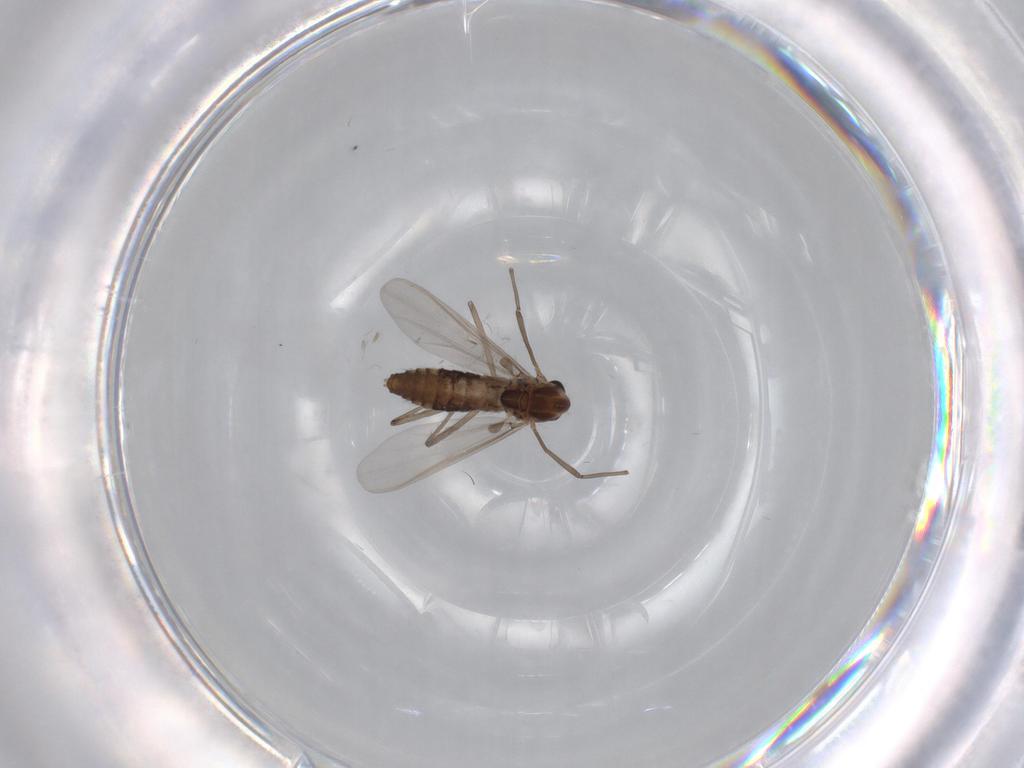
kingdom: Animalia
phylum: Arthropoda
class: Insecta
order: Diptera
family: Chironomidae
